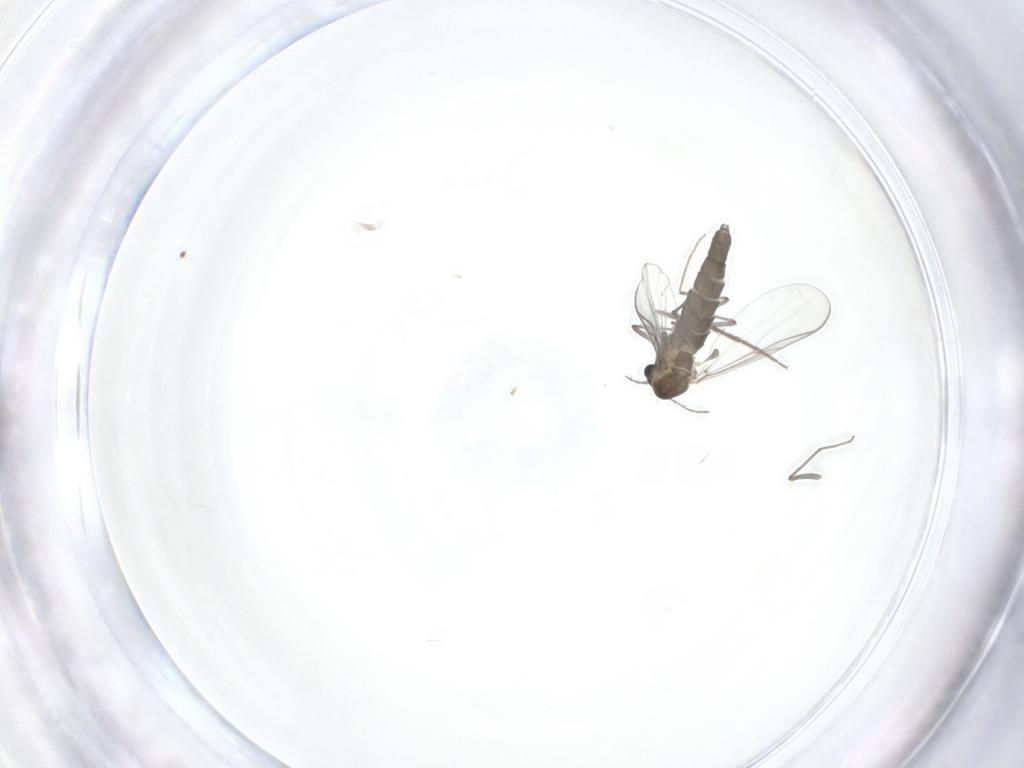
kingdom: Animalia
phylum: Arthropoda
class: Insecta
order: Diptera
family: Chironomidae
